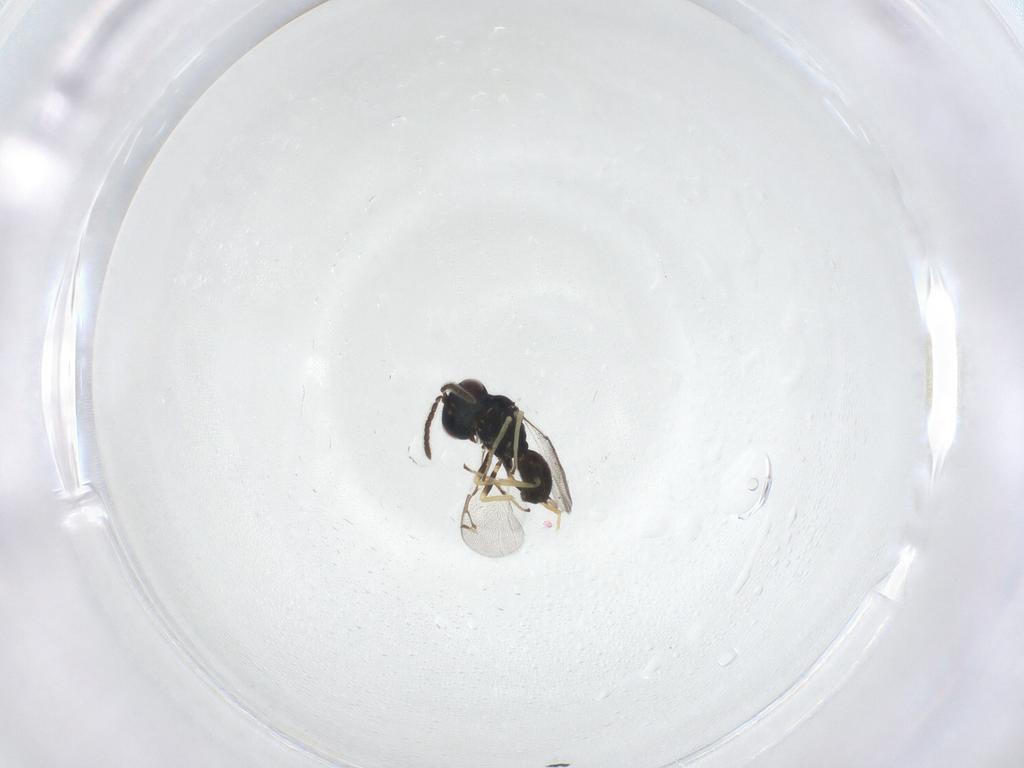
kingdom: Animalia
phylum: Arthropoda
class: Insecta
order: Hymenoptera
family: Pteromalidae
